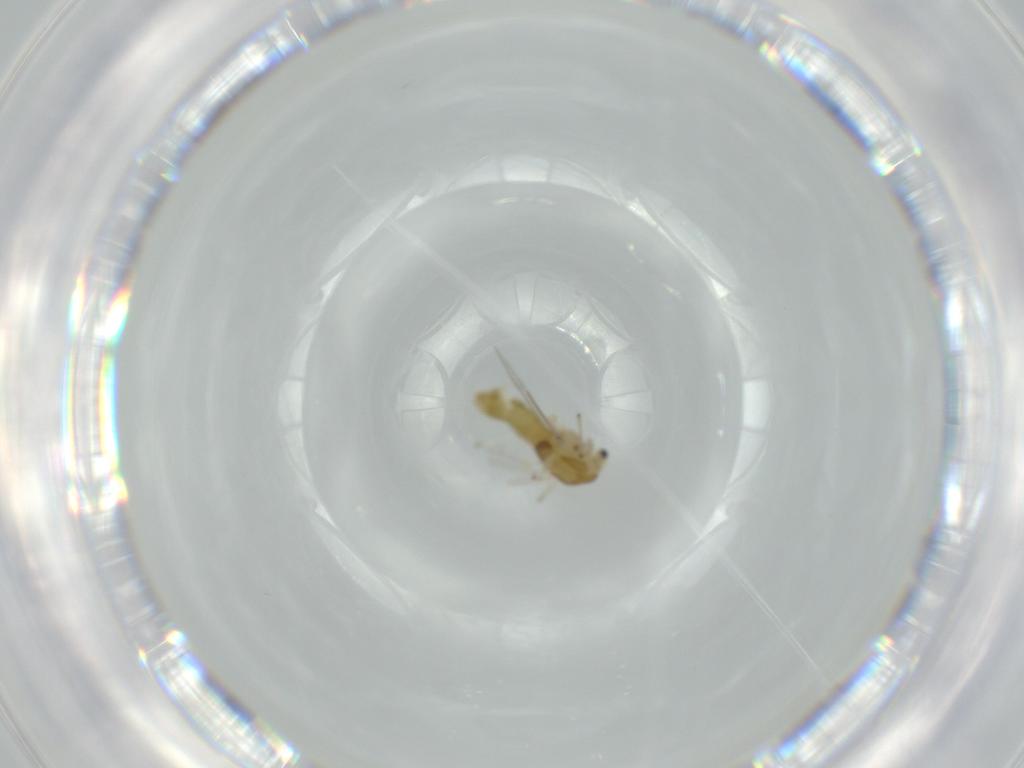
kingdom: Animalia
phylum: Arthropoda
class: Insecta
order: Diptera
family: Chironomidae
